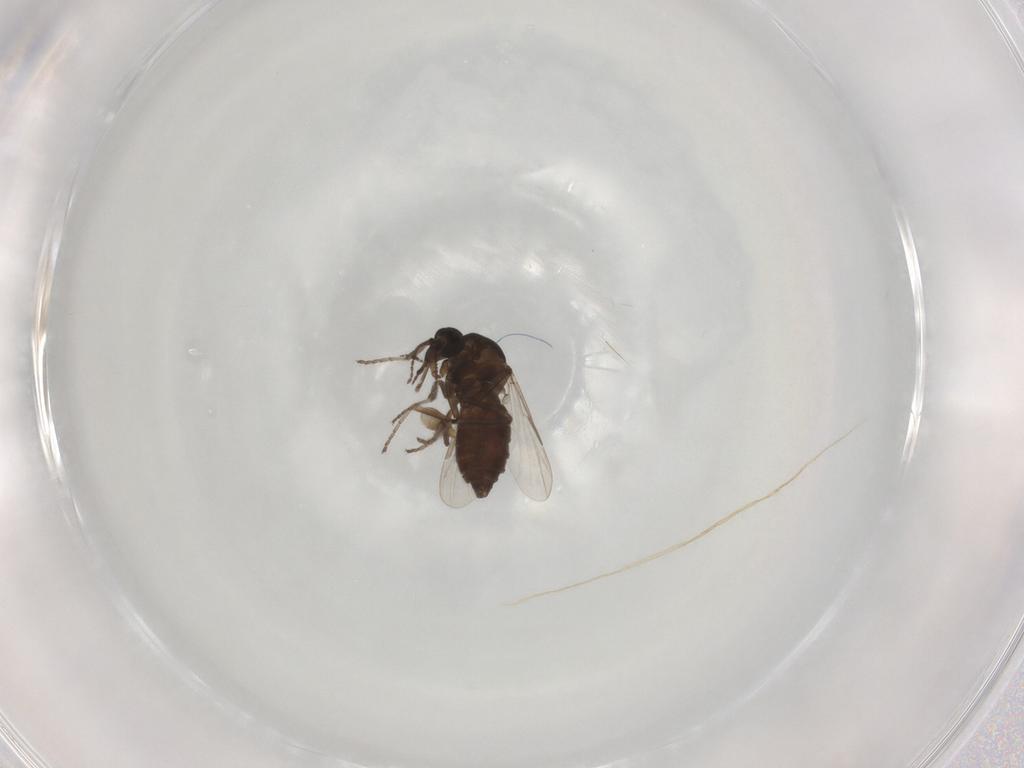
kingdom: Animalia
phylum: Arthropoda
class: Insecta
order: Diptera
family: Ceratopogonidae
